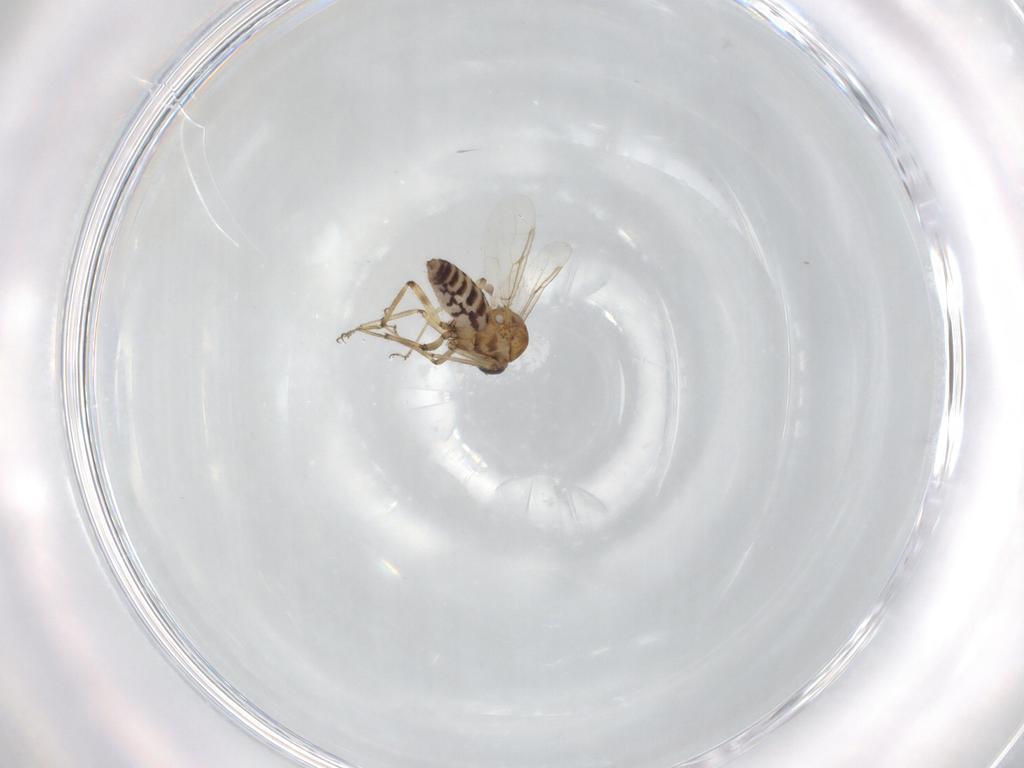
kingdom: Animalia
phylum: Arthropoda
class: Insecta
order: Diptera
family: Ceratopogonidae
